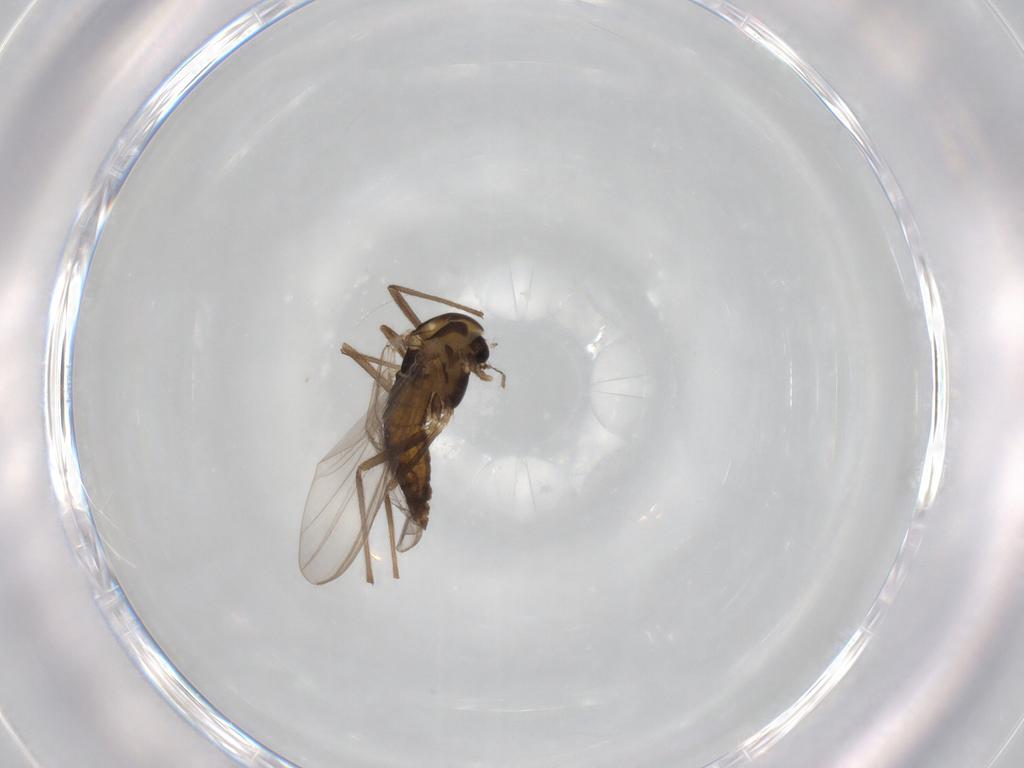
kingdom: Animalia
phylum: Arthropoda
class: Insecta
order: Diptera
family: Chironomidae
